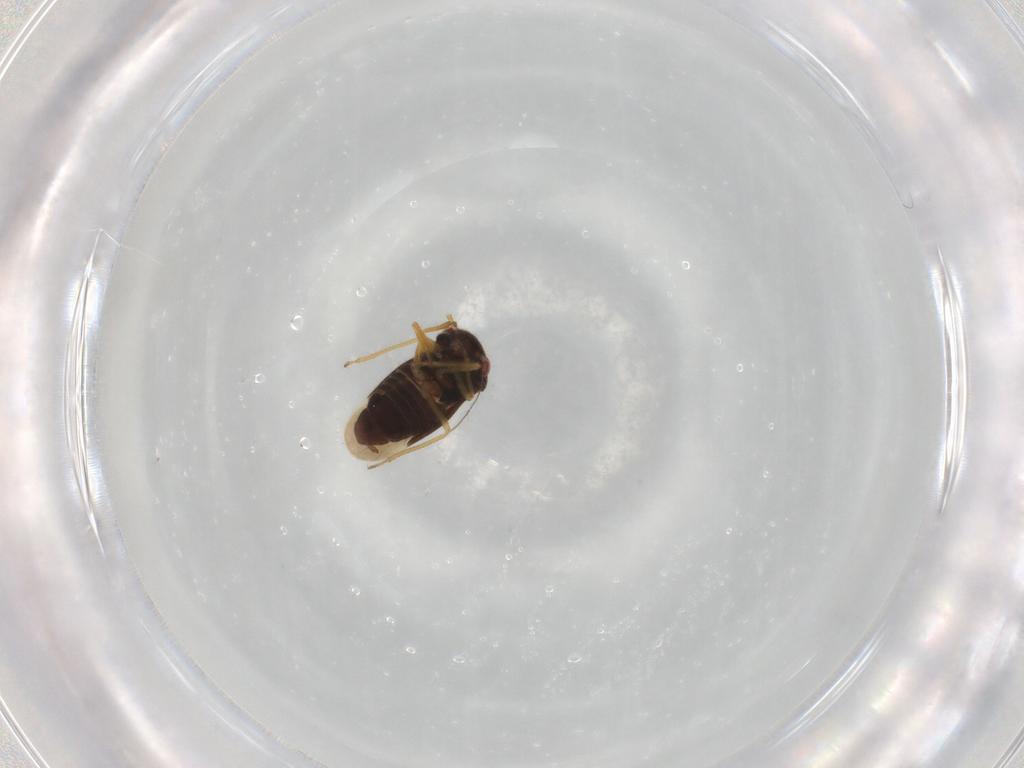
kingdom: Animalia
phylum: Arthropoda
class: Insecta
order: Hemiptera
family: Schizopteridae
